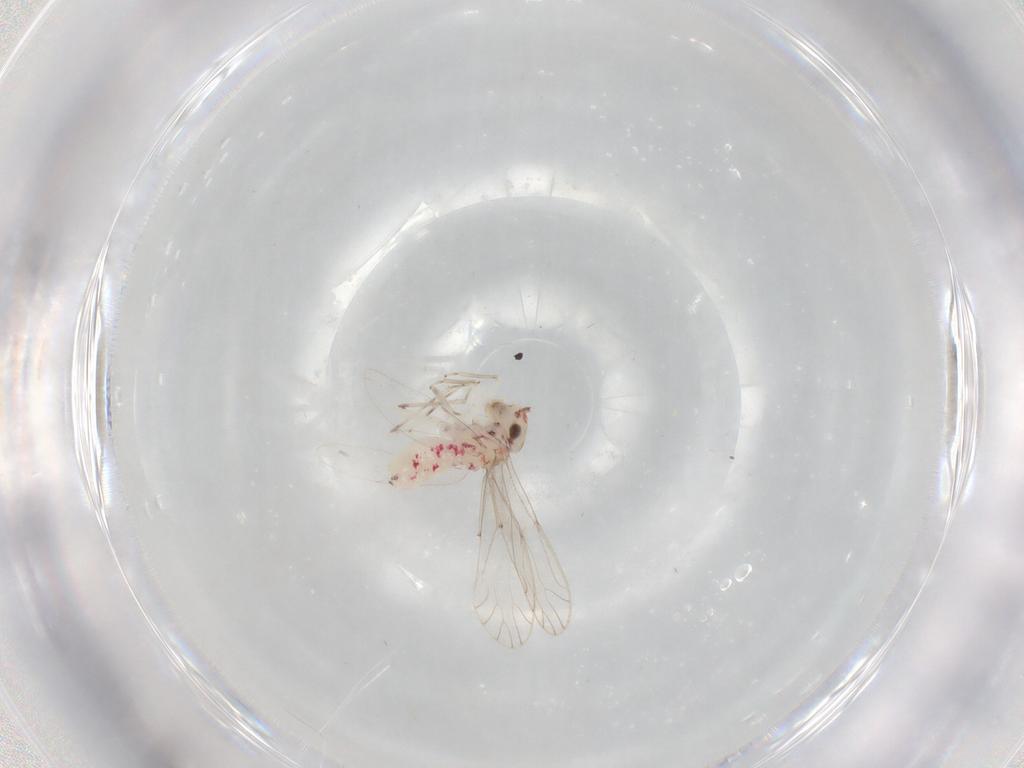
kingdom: Animalia
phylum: Arthropoda
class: Insecta
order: Psocodea
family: Caeciliusidae
